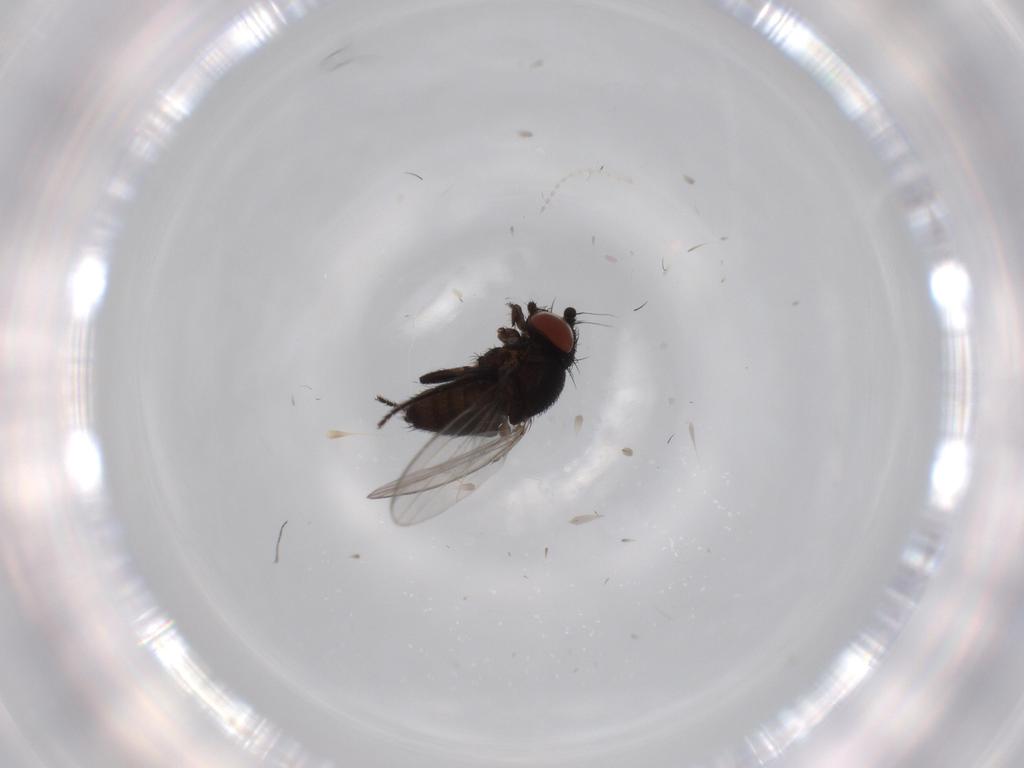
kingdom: Animalia
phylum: Arthropoda
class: Insecta
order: Diptera
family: Cecidomyiidae
